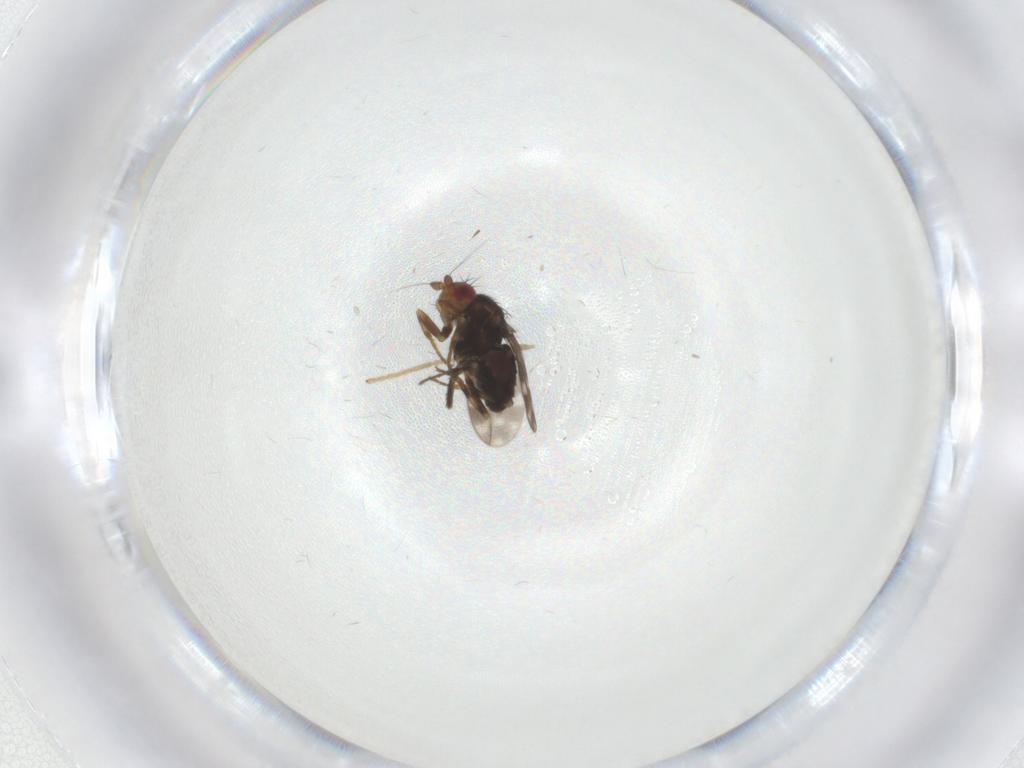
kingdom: Animalia
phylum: Arthropoda
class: Insecta
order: Diptera
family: Sphaeroceridae
